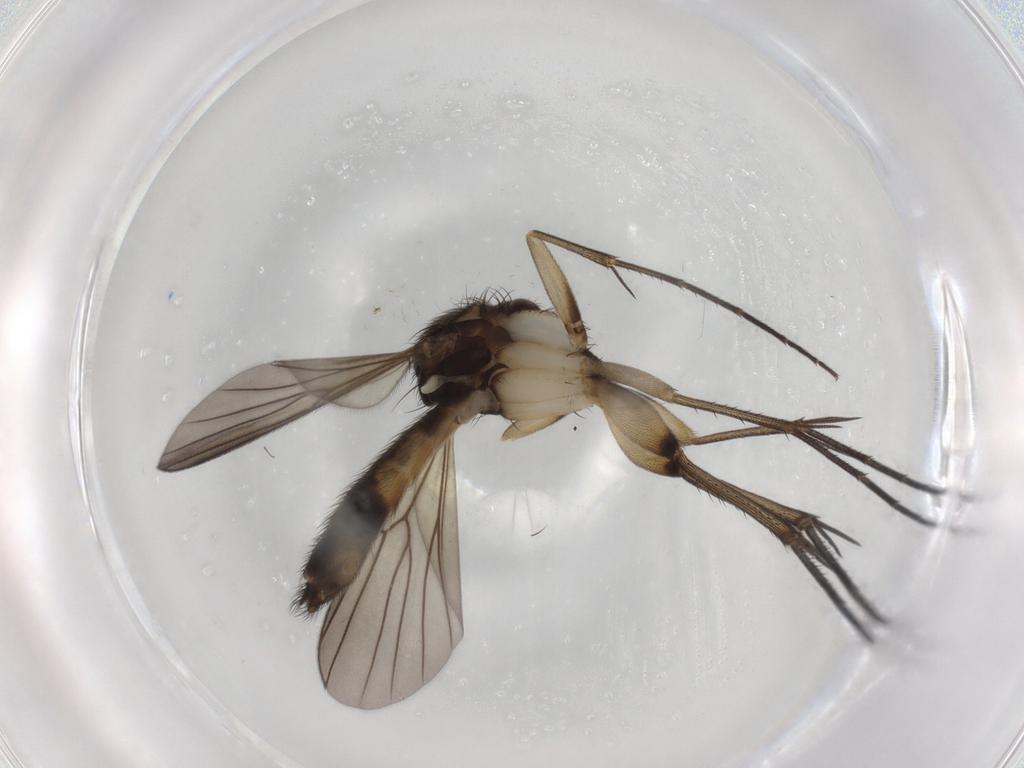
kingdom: Animalia
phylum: Arthropoda
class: Insecta
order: Diptera
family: Mycetophilidae
